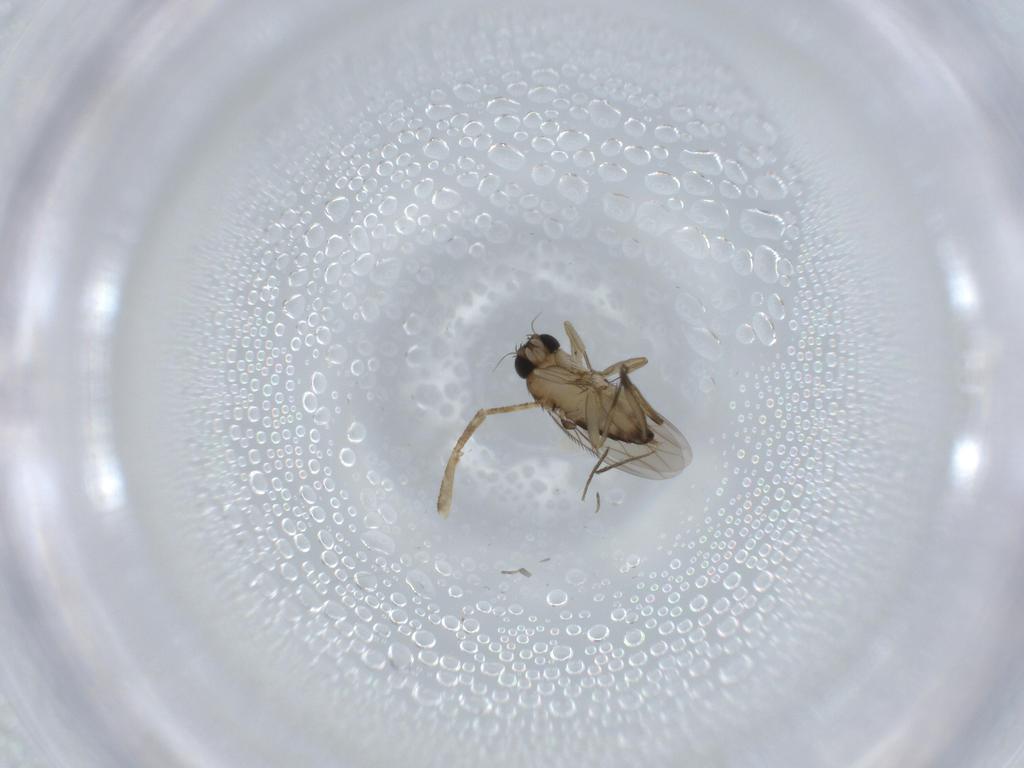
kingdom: Animalia
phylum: Arthropoda
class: Insecta
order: Diptera
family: Phoridae
